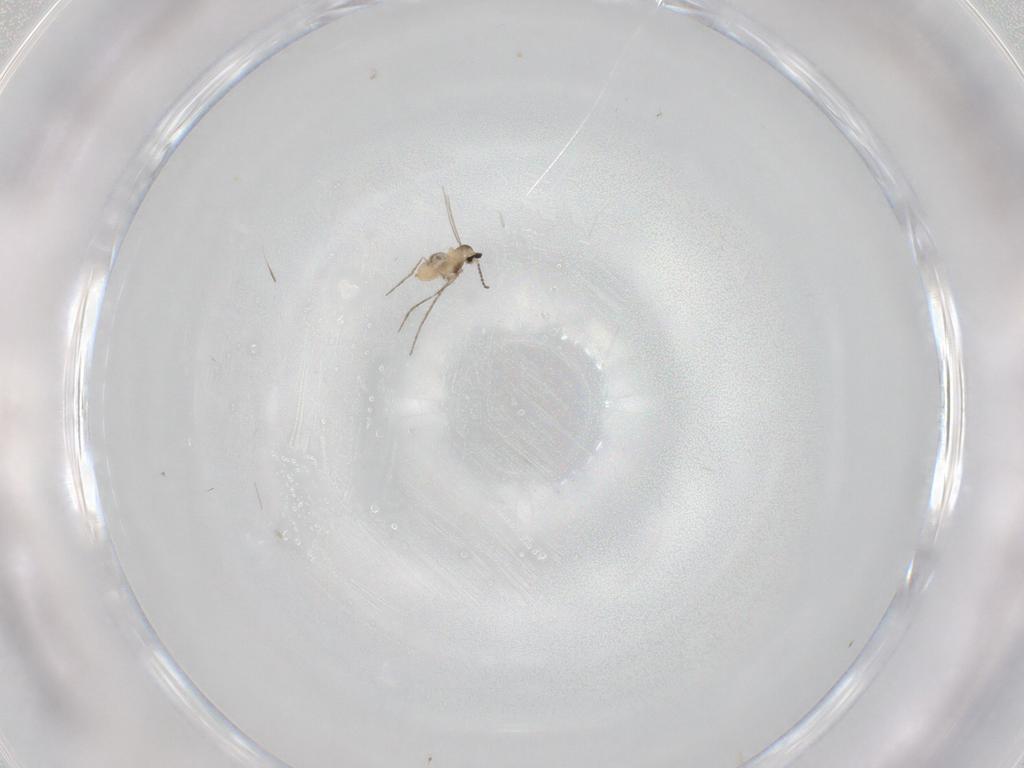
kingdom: Animalia
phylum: Arthropoda
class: Insecta
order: Diptera
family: Cecidomyiidae
